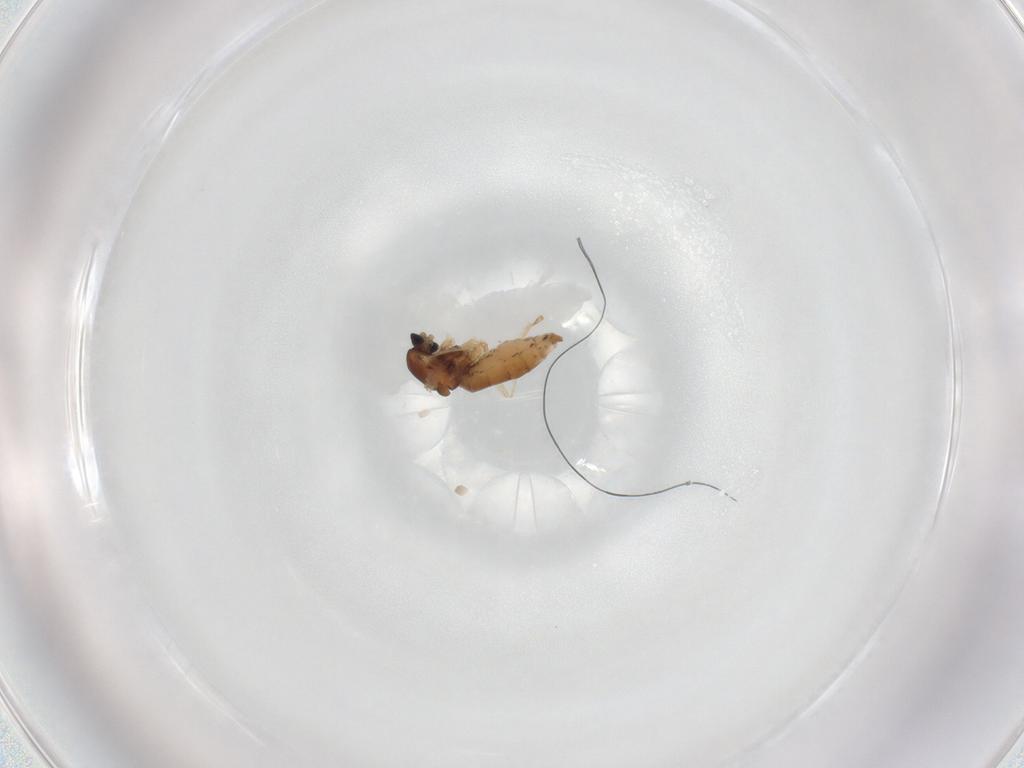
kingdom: Animalia
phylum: Arthropoda
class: Insecta
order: Diptera
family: Cecidomyiidae
